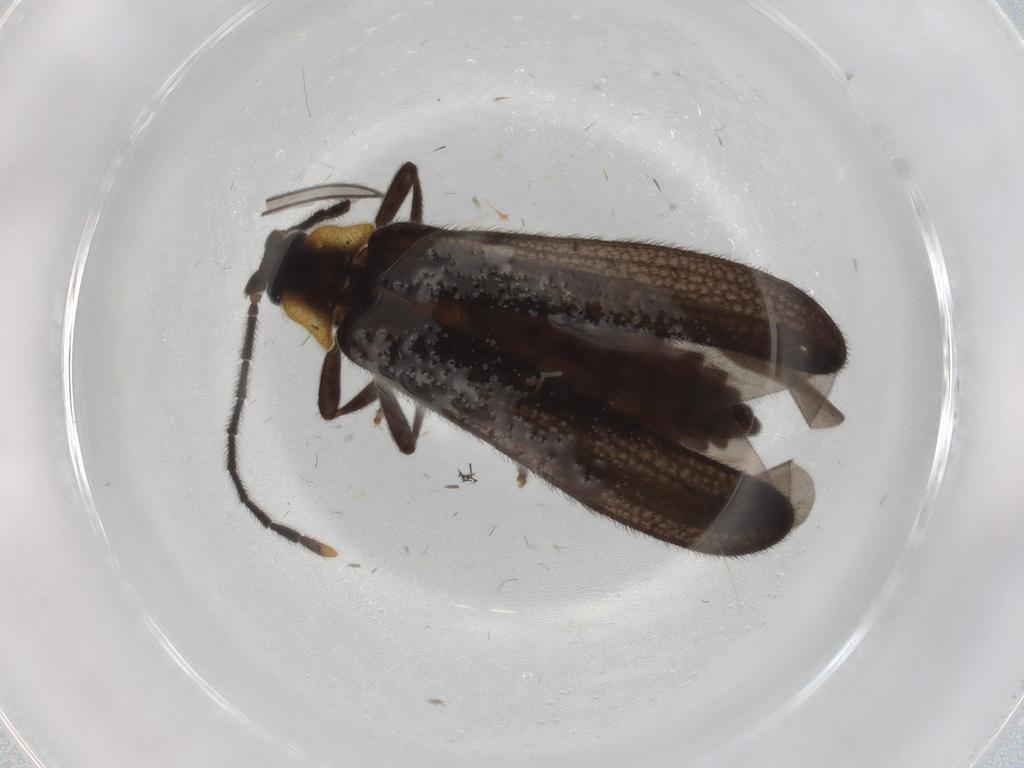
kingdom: Animalia
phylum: Arthropoda
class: Insecta
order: Coleoptera
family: Lycidae
